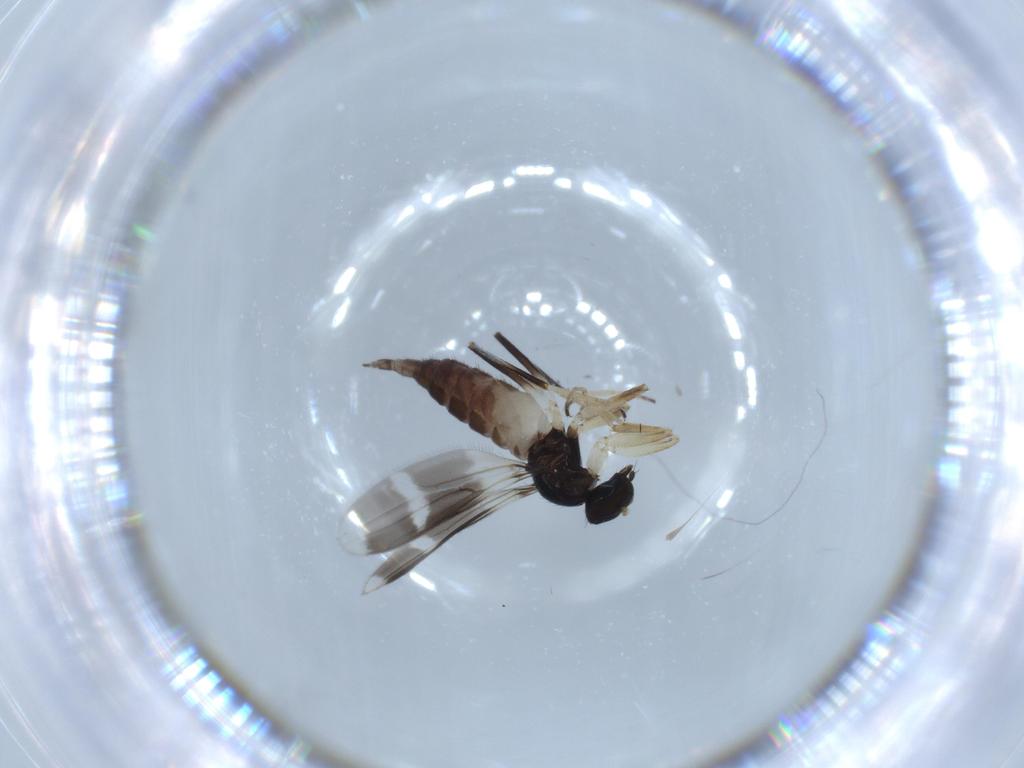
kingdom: Animalia
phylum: Arthropoda
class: Insecta
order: Diptera
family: Hybotidae
